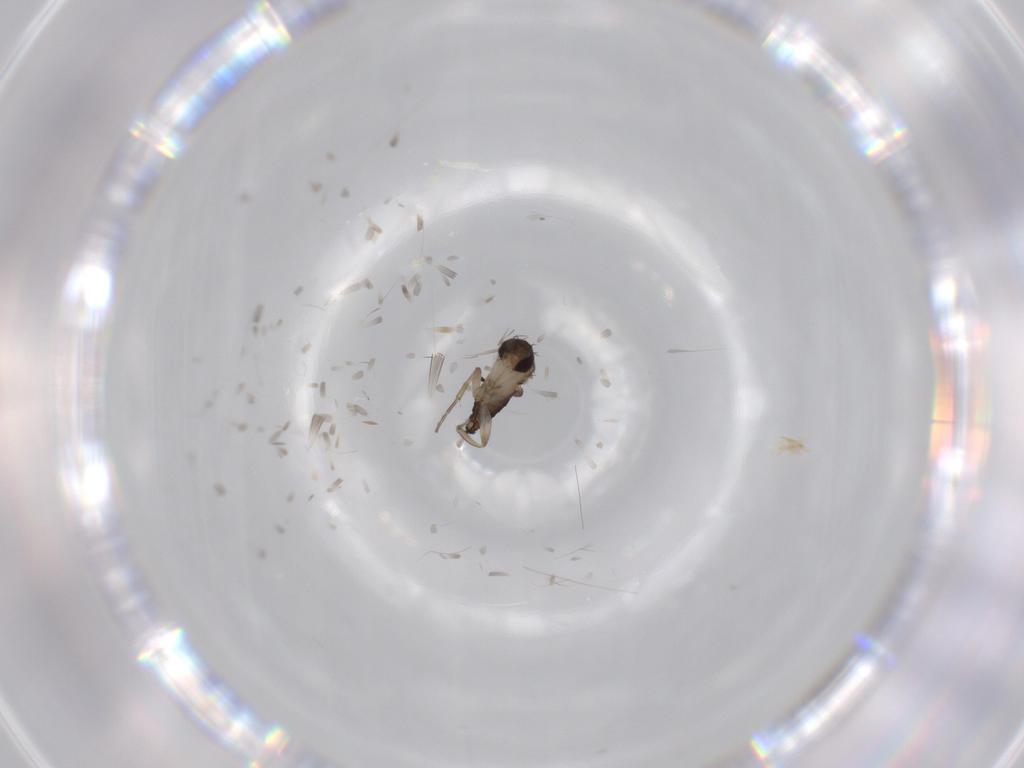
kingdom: Animalia
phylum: Arthropoda
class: Insecta
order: Diptera
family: Phoridae
